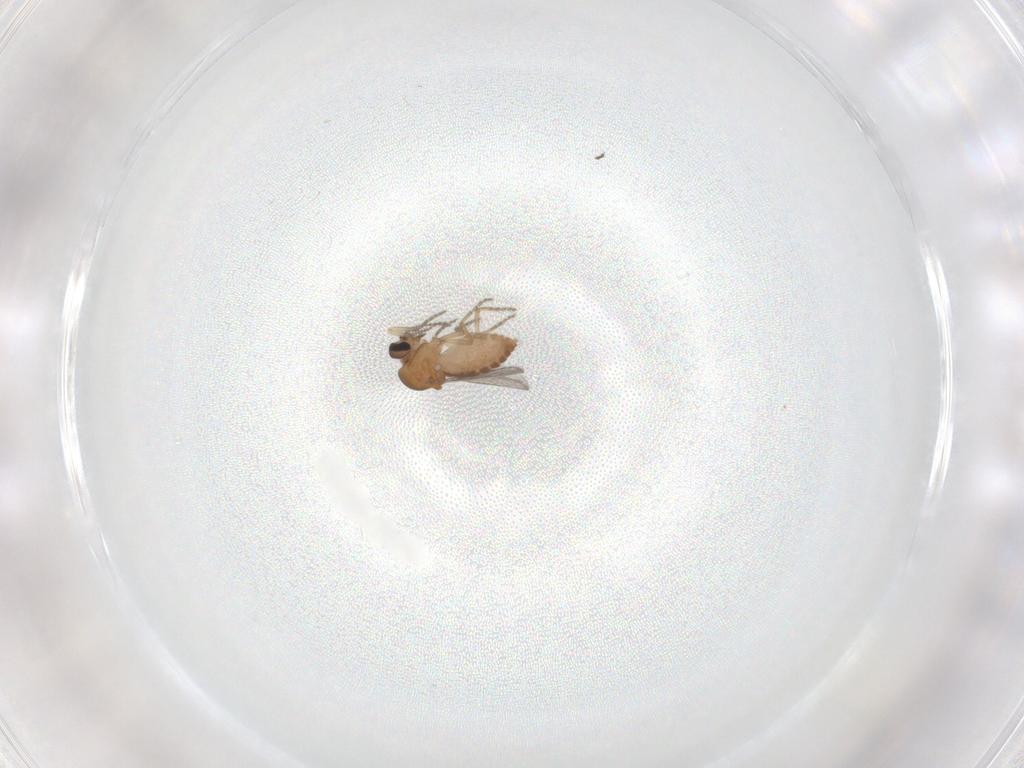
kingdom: Animalia
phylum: Arthropoda
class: Insecta
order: Diptera
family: Ceratopogonidae
